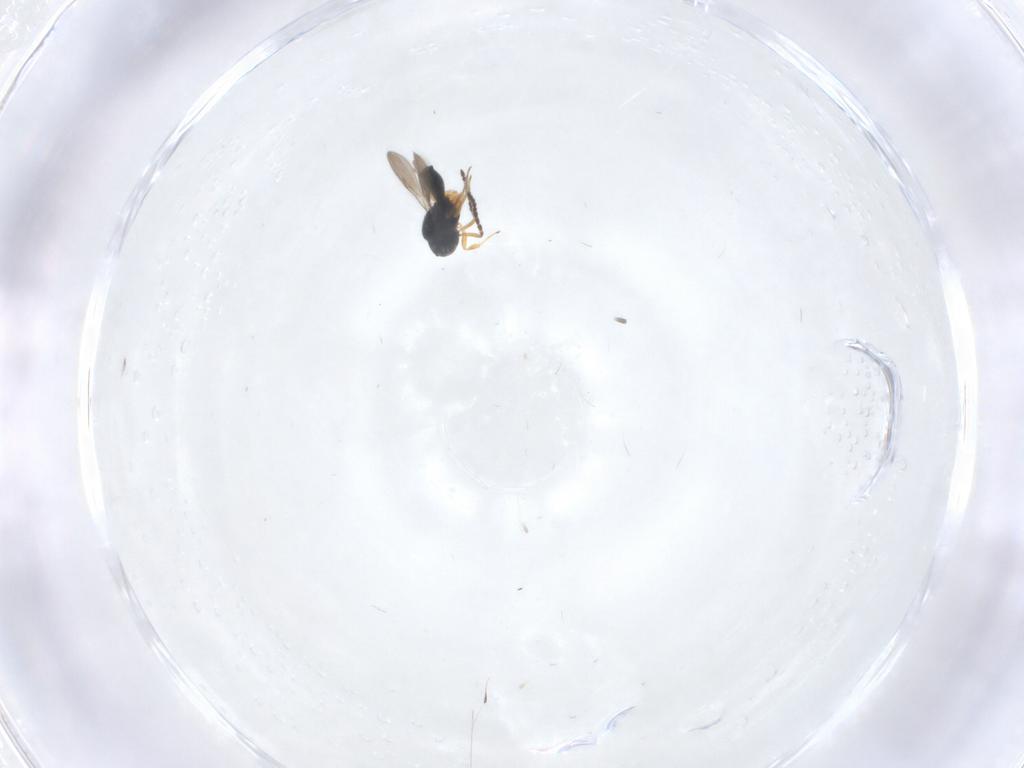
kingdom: Animalia
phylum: Arthropoda
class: Insecta
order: Hymenoptera
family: Scelionidae
